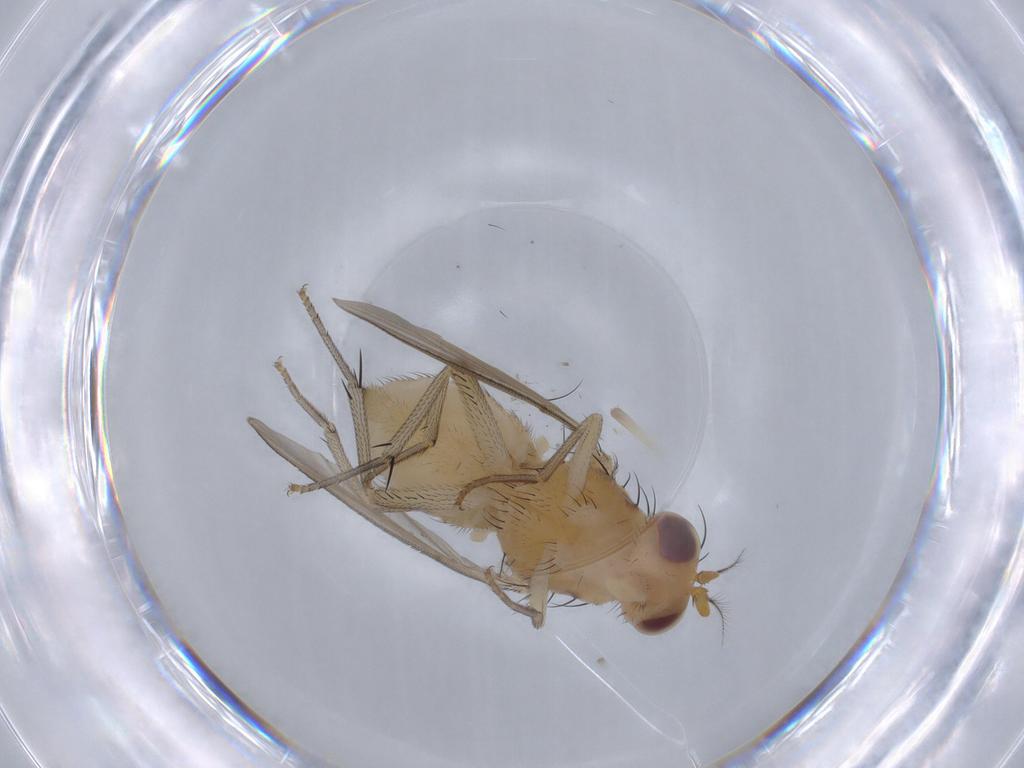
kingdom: Animalia
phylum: Arthropoda
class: Insecta
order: Diptera
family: Lauxaniidae
